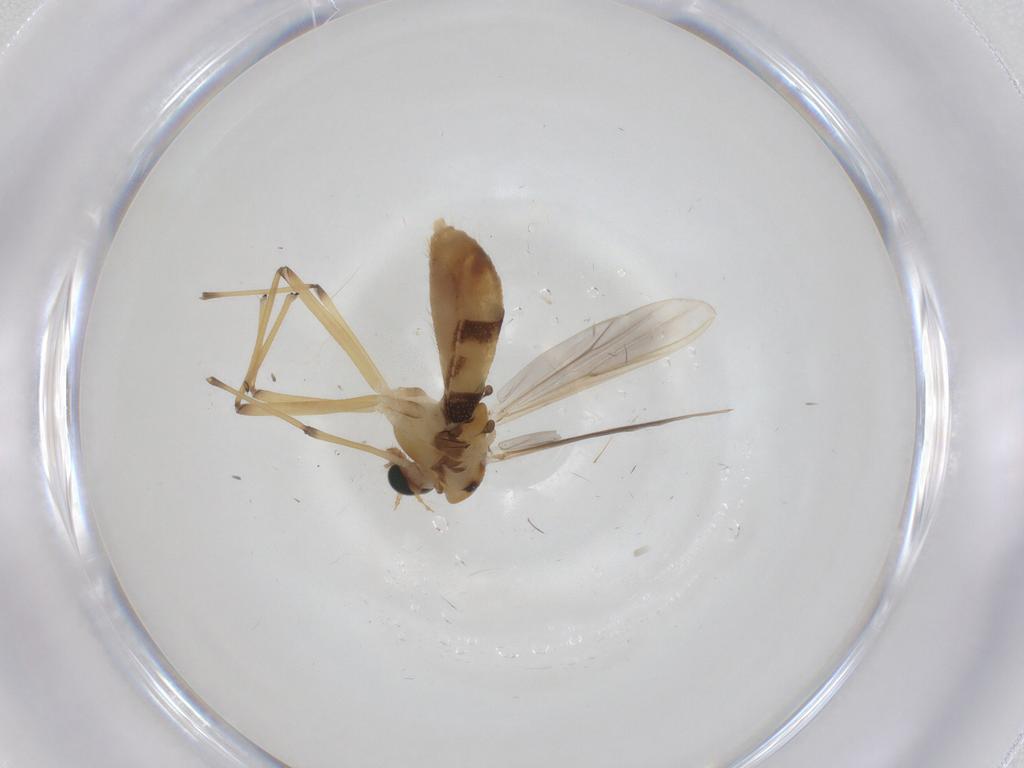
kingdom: Animalia
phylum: Arthropoda
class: Insecta
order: Diptera
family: Chironomidae
